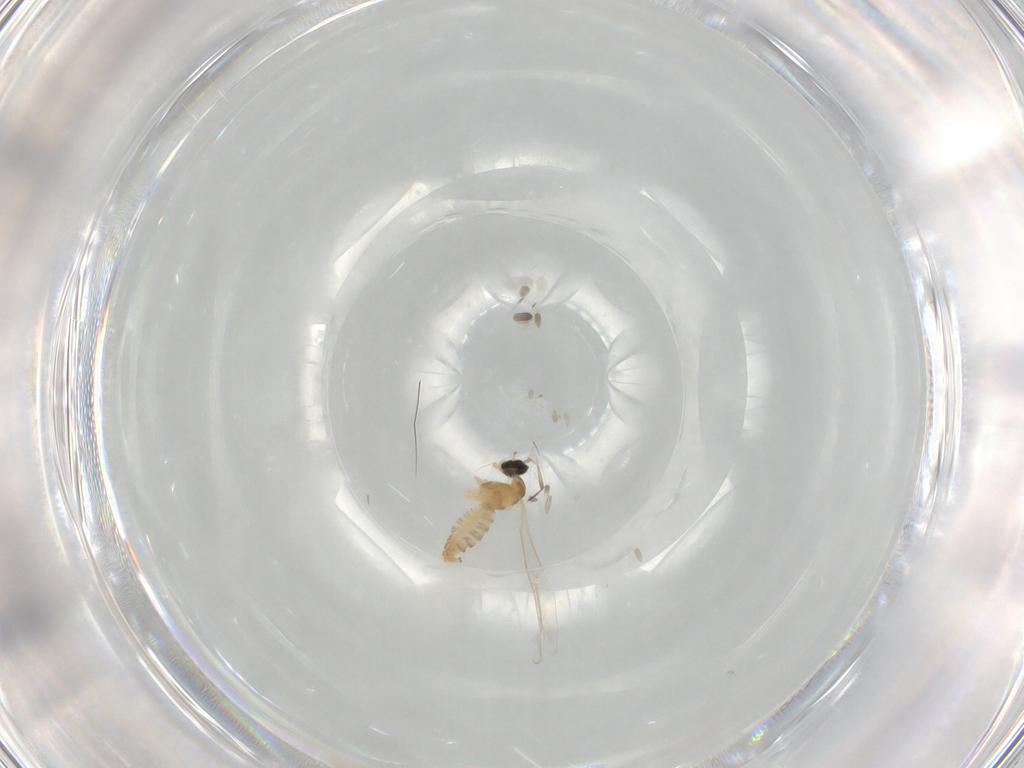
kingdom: Animalia
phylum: Arthropoda
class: Insecta
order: Diptera
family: Cecidomyiidae
